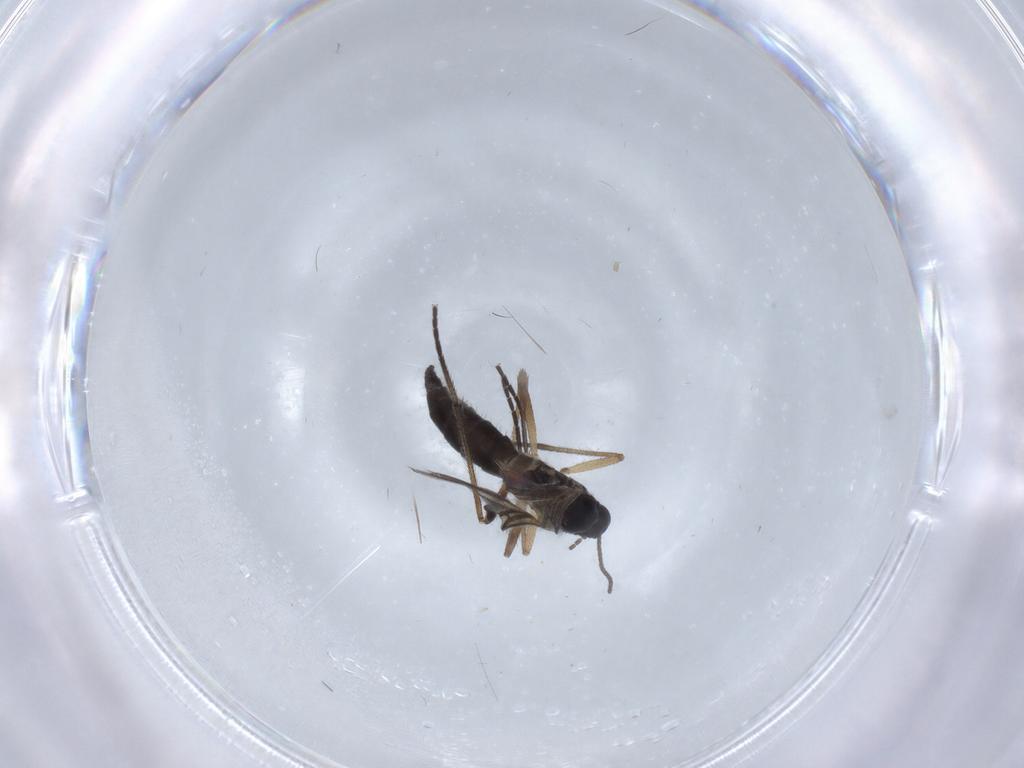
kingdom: Animalia
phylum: Arthropoda
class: Insecta
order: Diptera
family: Sciaridae
